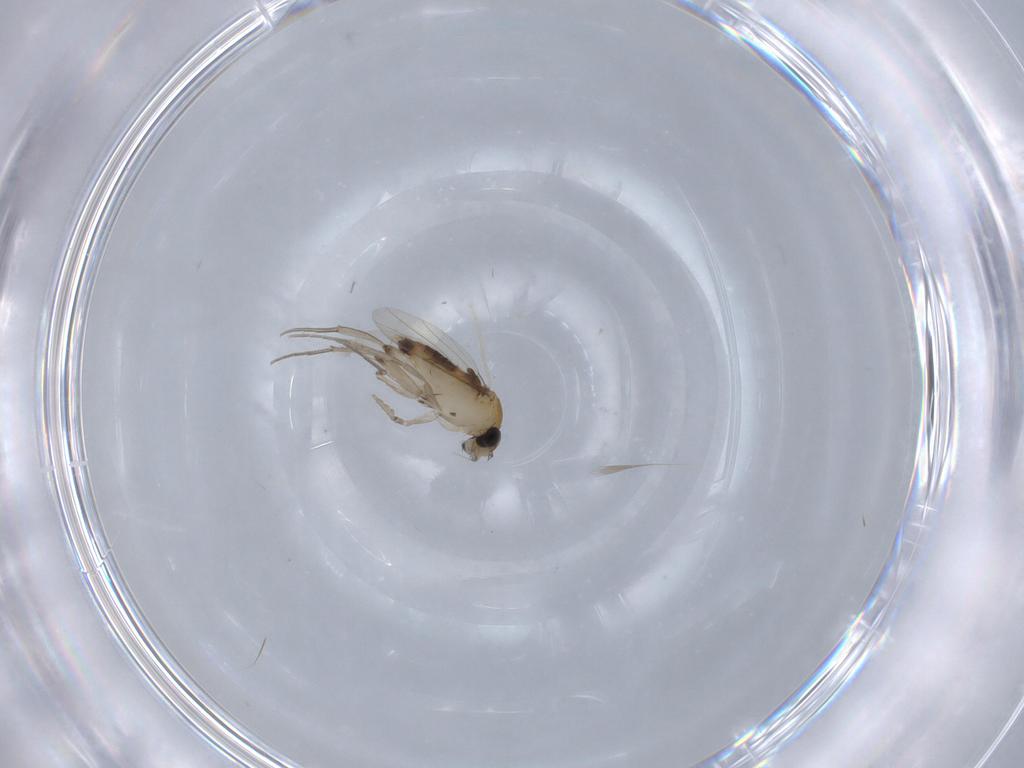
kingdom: Animalia
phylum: Arthropoda
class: Insecta
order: Diptera
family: Phoridae
